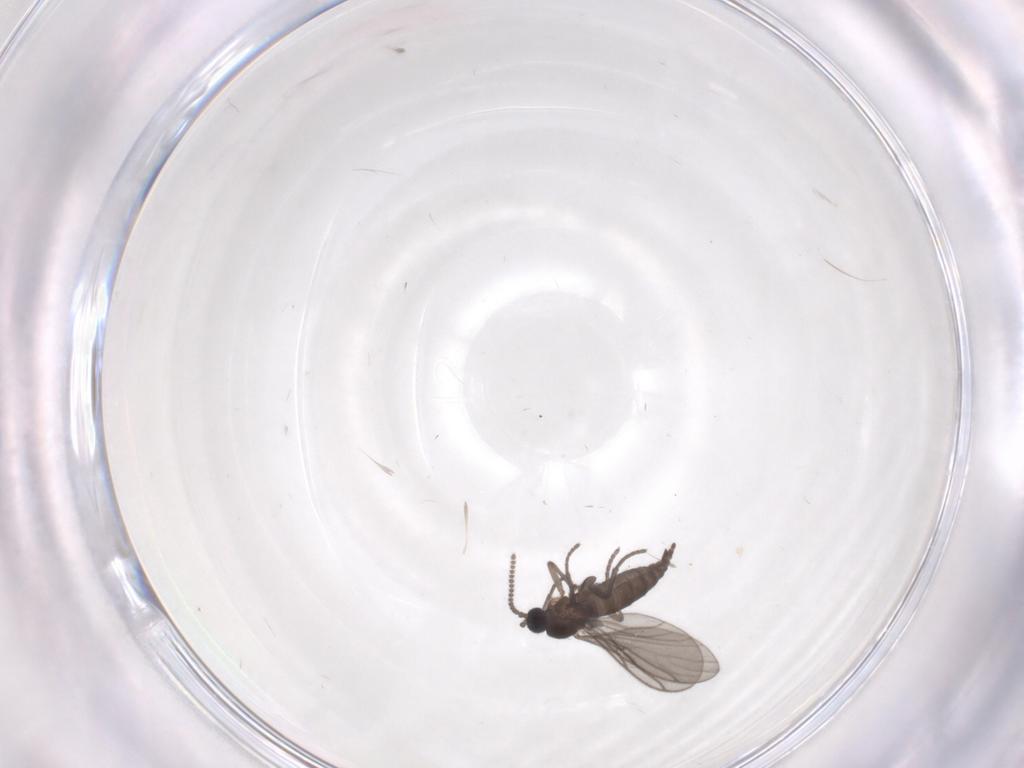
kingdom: Animalia
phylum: Arthropoda
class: Insecta
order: Diptera
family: Sciaridae
